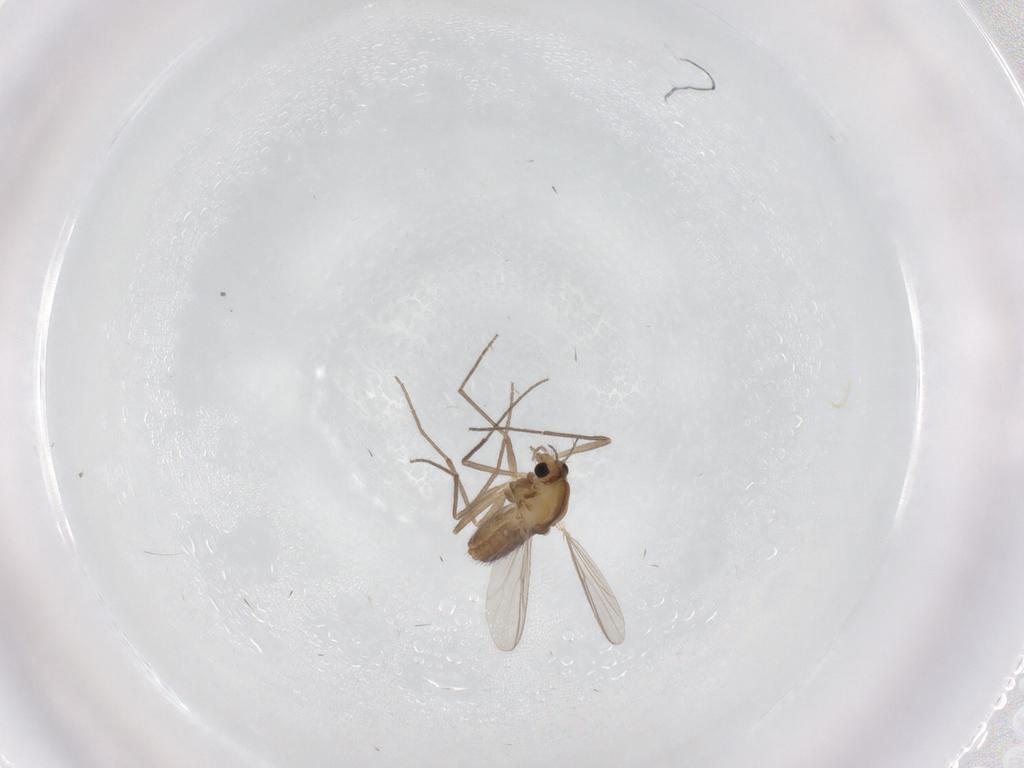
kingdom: Animalia
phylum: Arthropoda
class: Insecta
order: Diptera
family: Chironomidae
